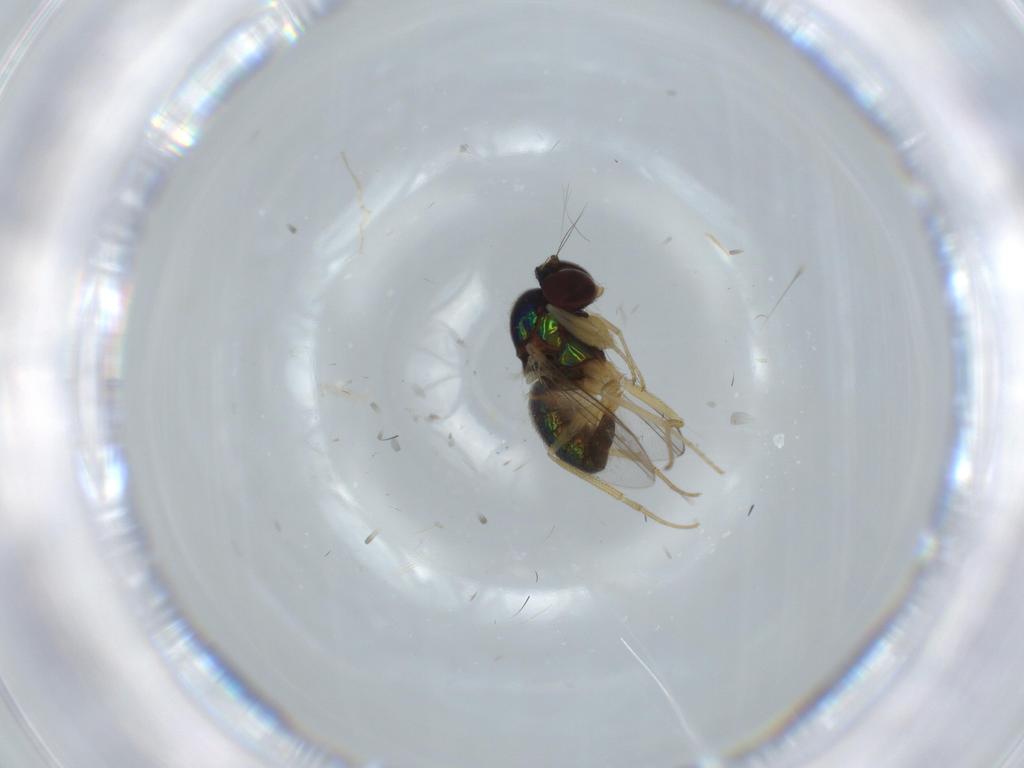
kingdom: Animalia
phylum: Arthropoda
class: Insecta
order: Diptera
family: Dolichopodidae
